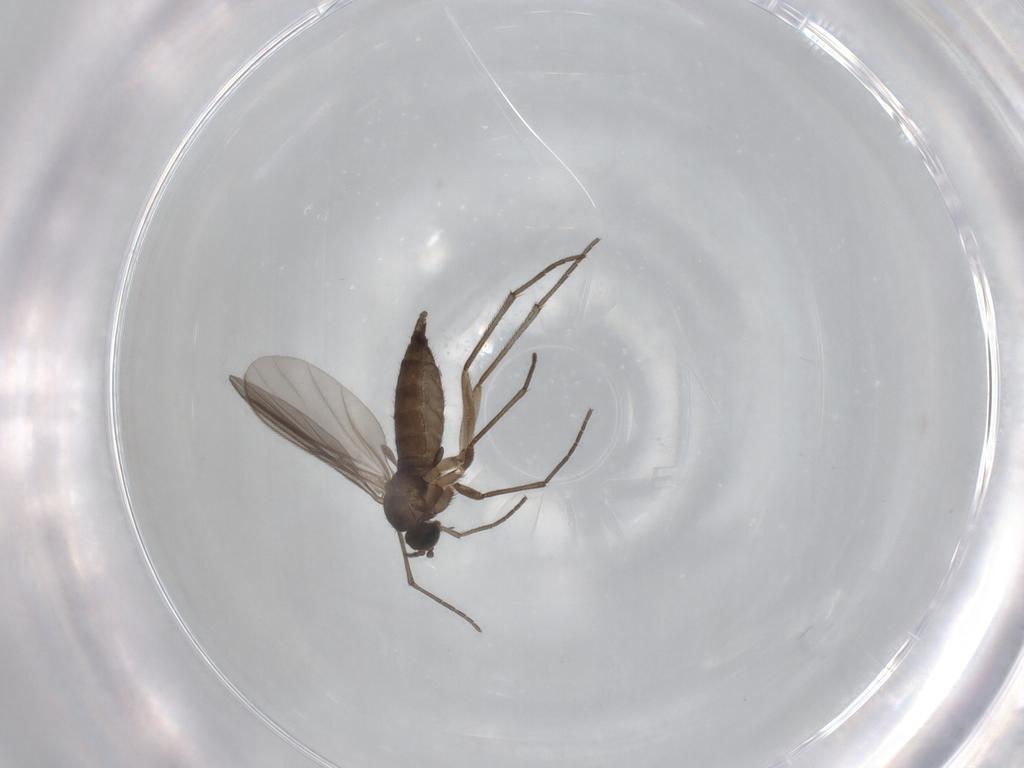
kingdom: Animalia
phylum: Arthropoda
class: Insecta
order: Diptera
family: Sciaridae
